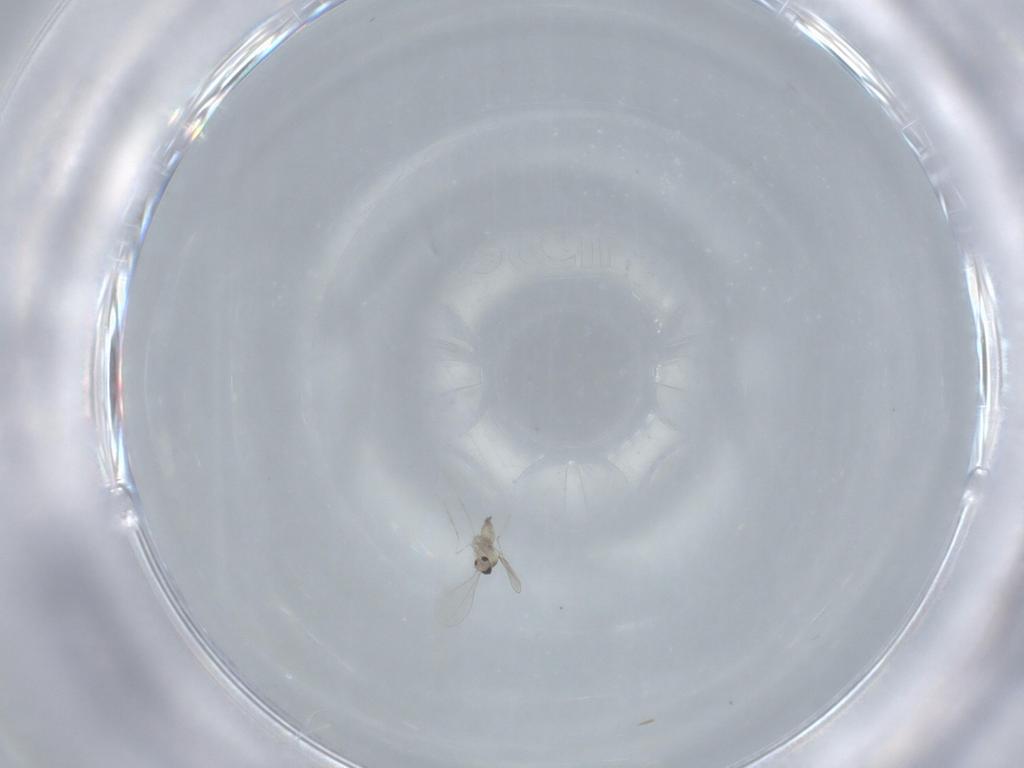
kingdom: Animalia
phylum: Arthropoda
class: Insecta
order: Diptera
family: Sciaridae
